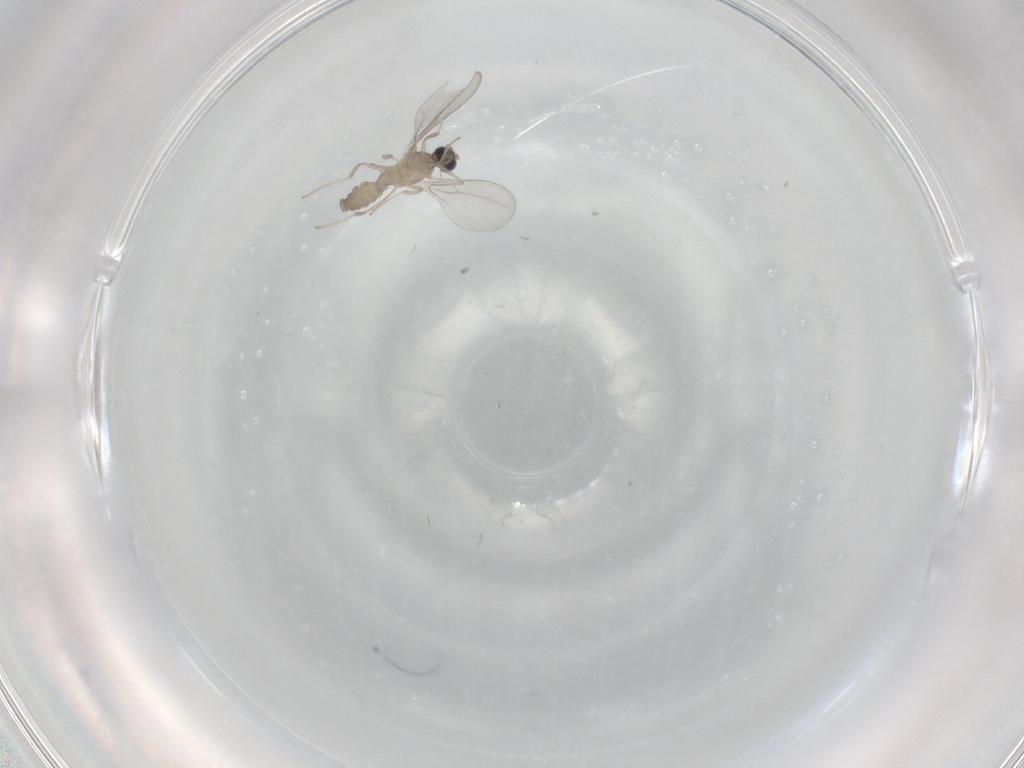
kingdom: Animalia
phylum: Arthropoda
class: Insecta
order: Diptera
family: Cecidomyiidae
